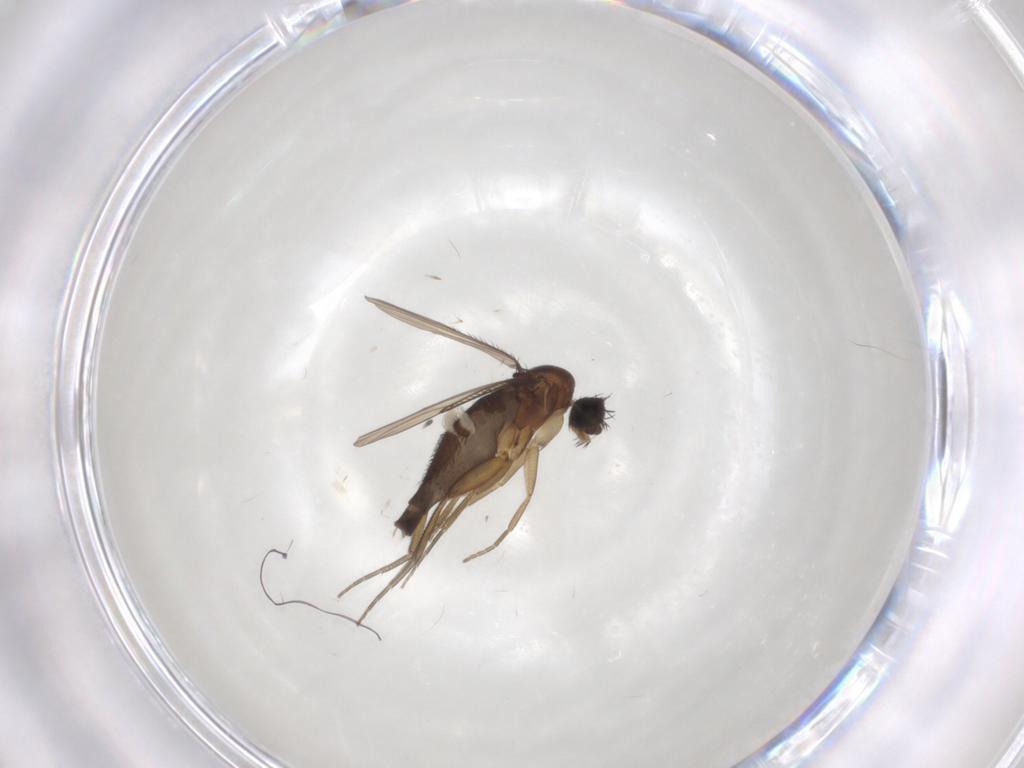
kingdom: Animalia
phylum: Arthropoda
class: Insecta
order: Diptera
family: Phoridae
